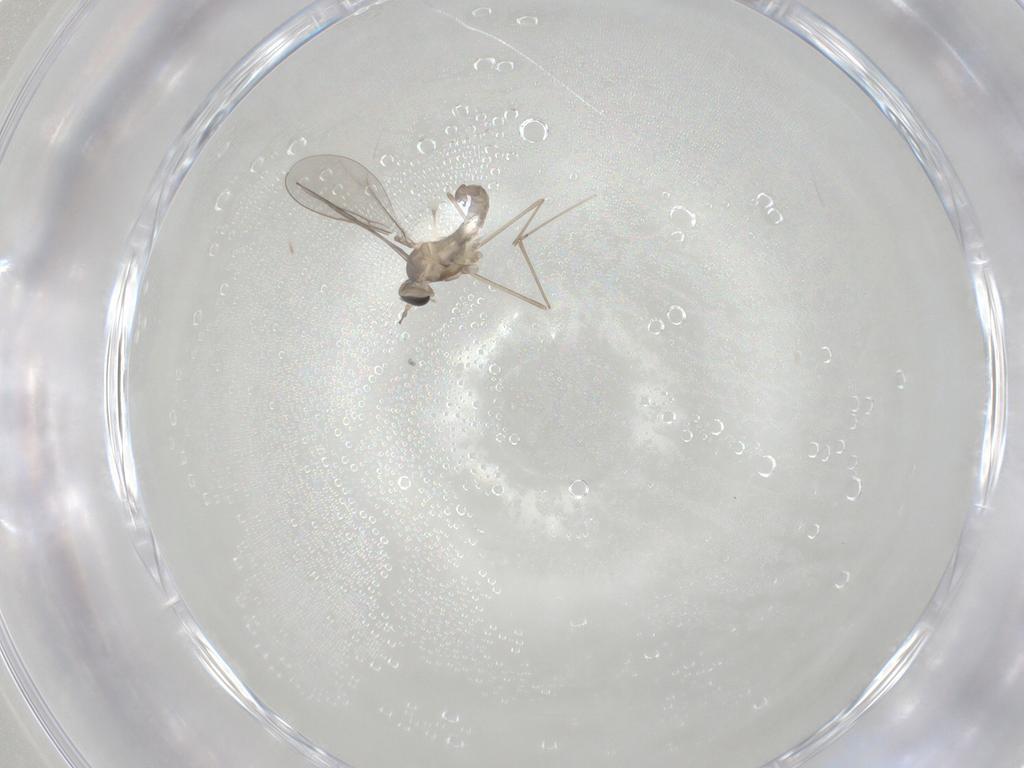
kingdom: Animalia
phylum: Arthropoda
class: Insecta
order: Diptera
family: Cecidomyiidae
